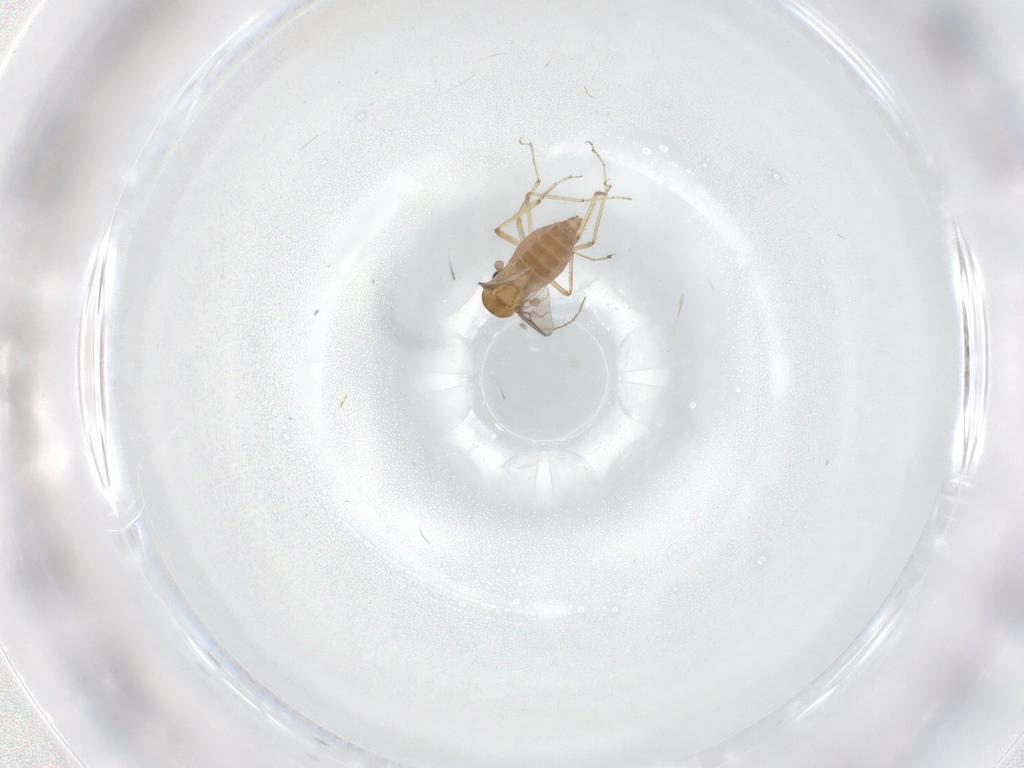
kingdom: Animalia
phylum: Arthropoda
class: Insecta
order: Diptera
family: Ceratopogonidae
